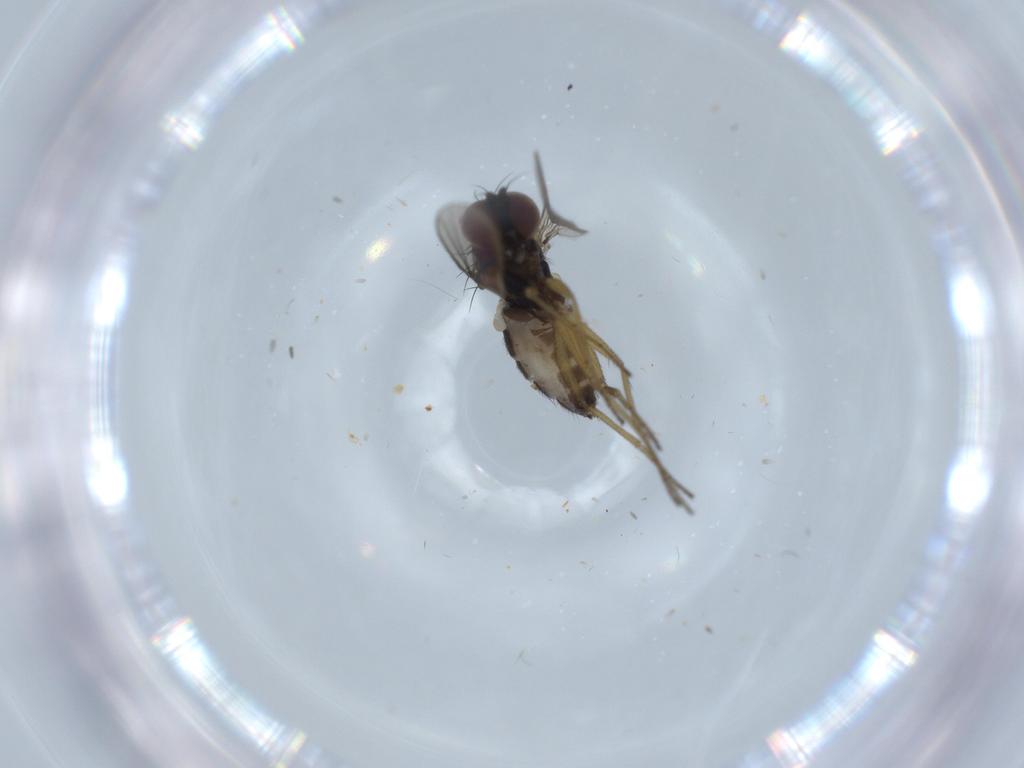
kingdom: Animalia
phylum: Arthropoda
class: Insecta
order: Diptera
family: Dolichopodidae
